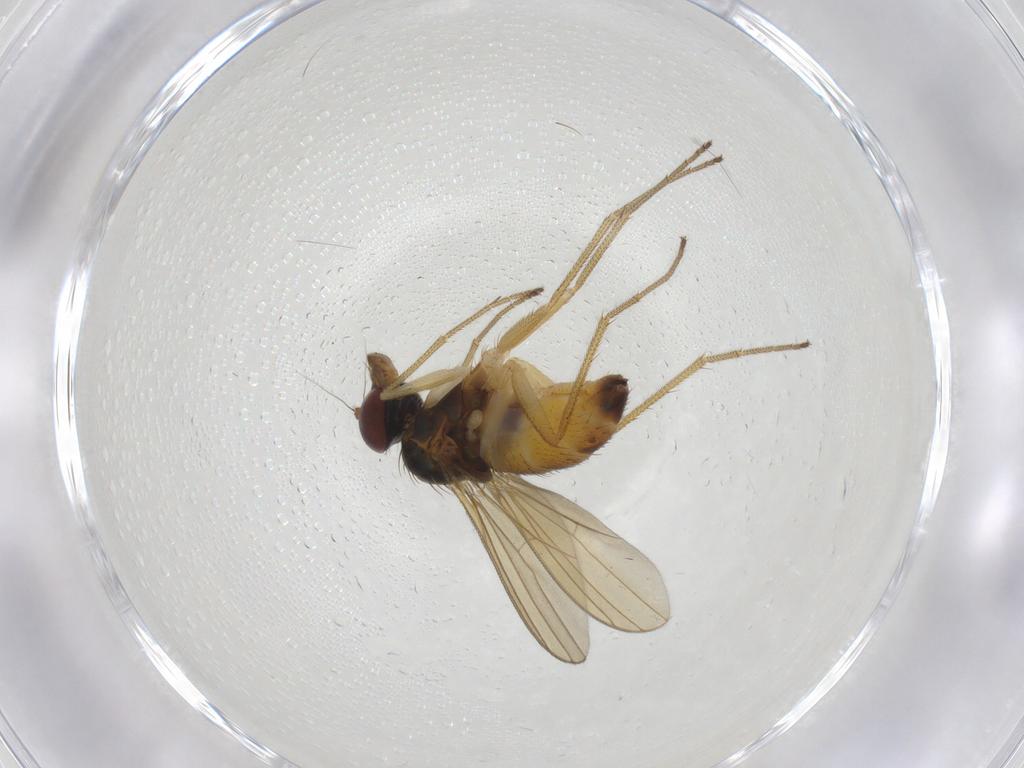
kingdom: Animalia
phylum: Arthropoda
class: Insecta
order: Diptera
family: Dolichopodidae
